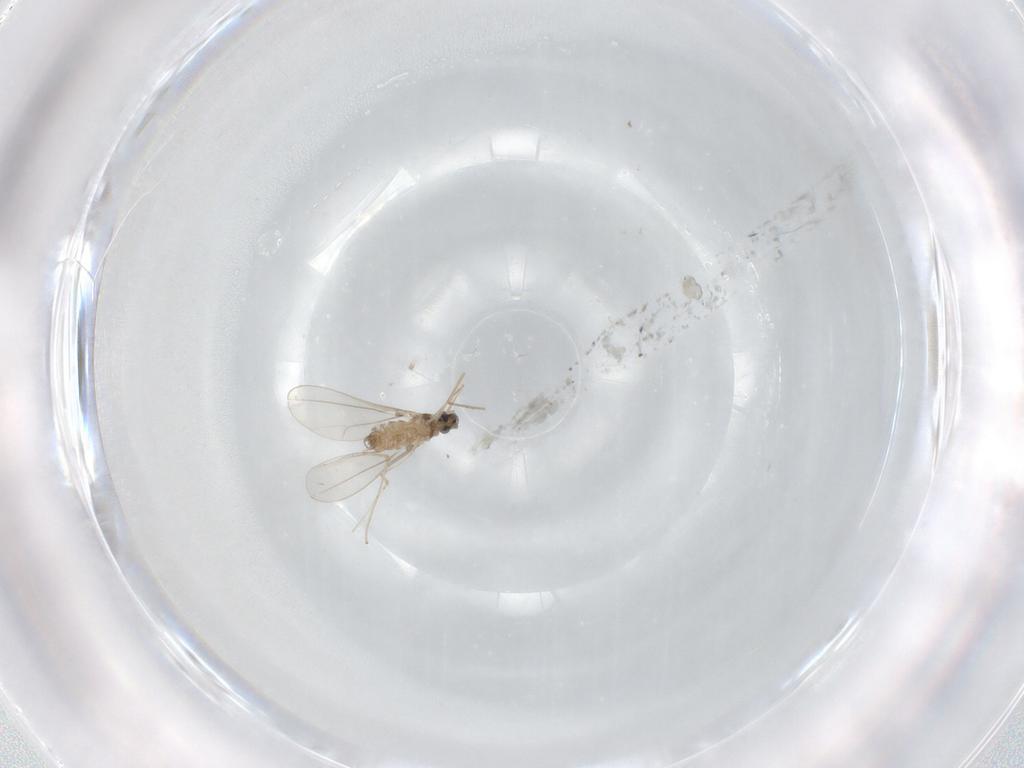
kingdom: Animalia
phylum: Arthropoda
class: Insecta
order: Diptera
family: Cecidomyiidae
